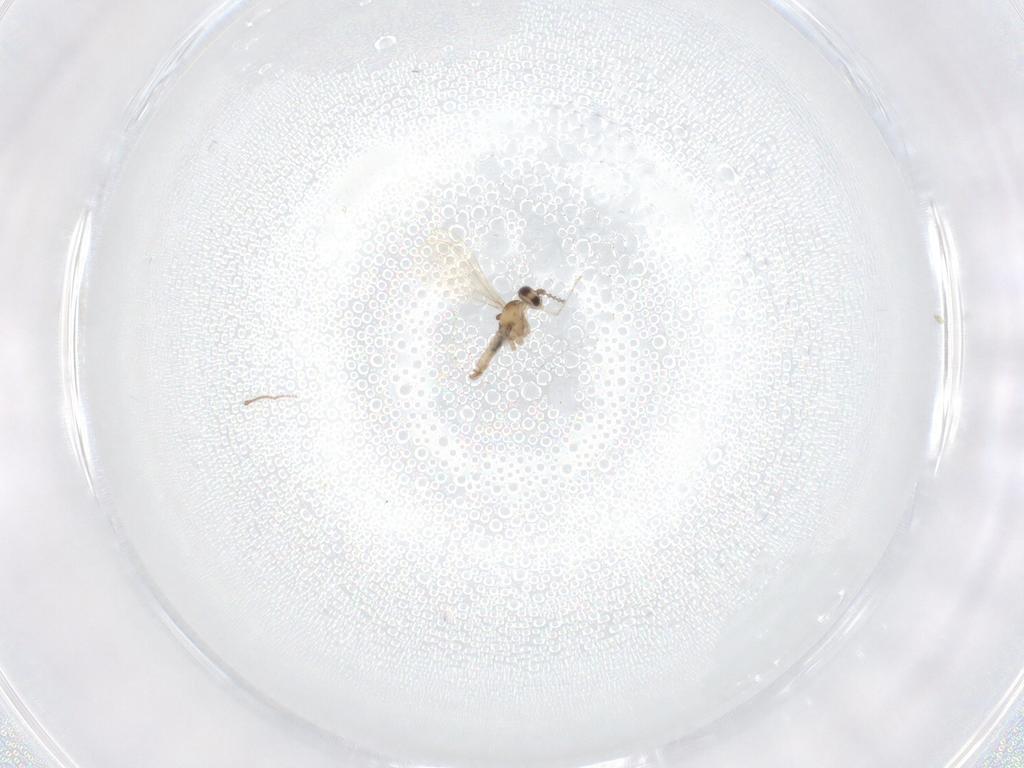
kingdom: Animalia
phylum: Arthropoda
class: Insecta
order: Diptera
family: Cecidomyiidae
